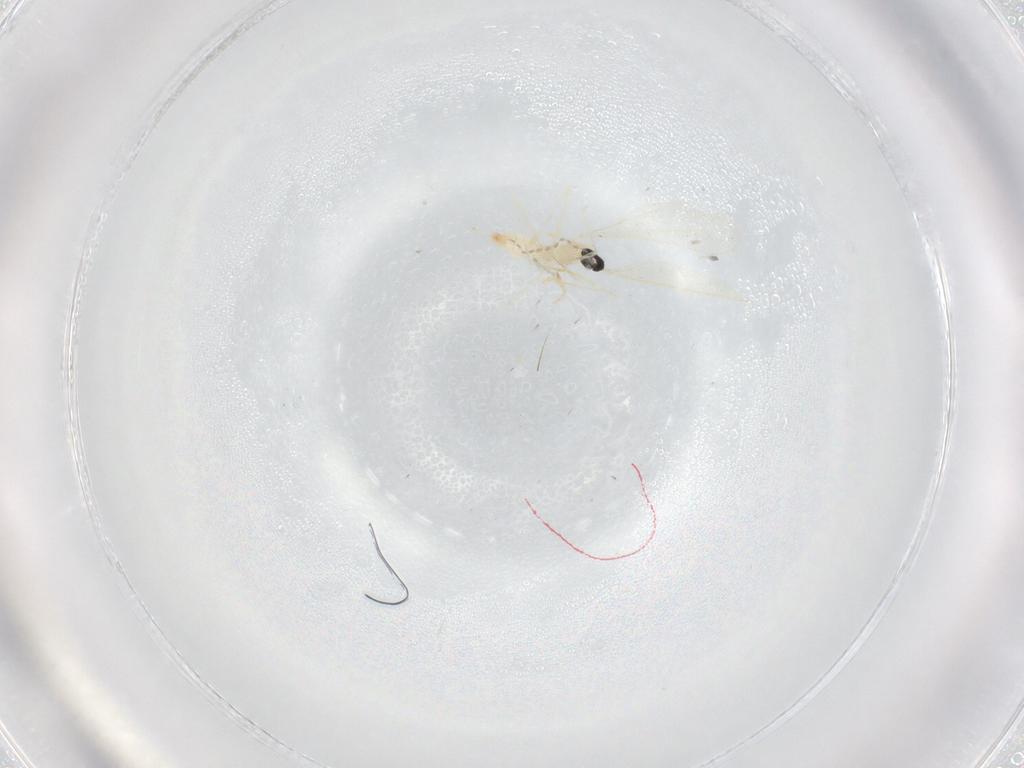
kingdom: Animalia
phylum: Arthropoda
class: Insecta
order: Diptera
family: Cecidomyiidae
